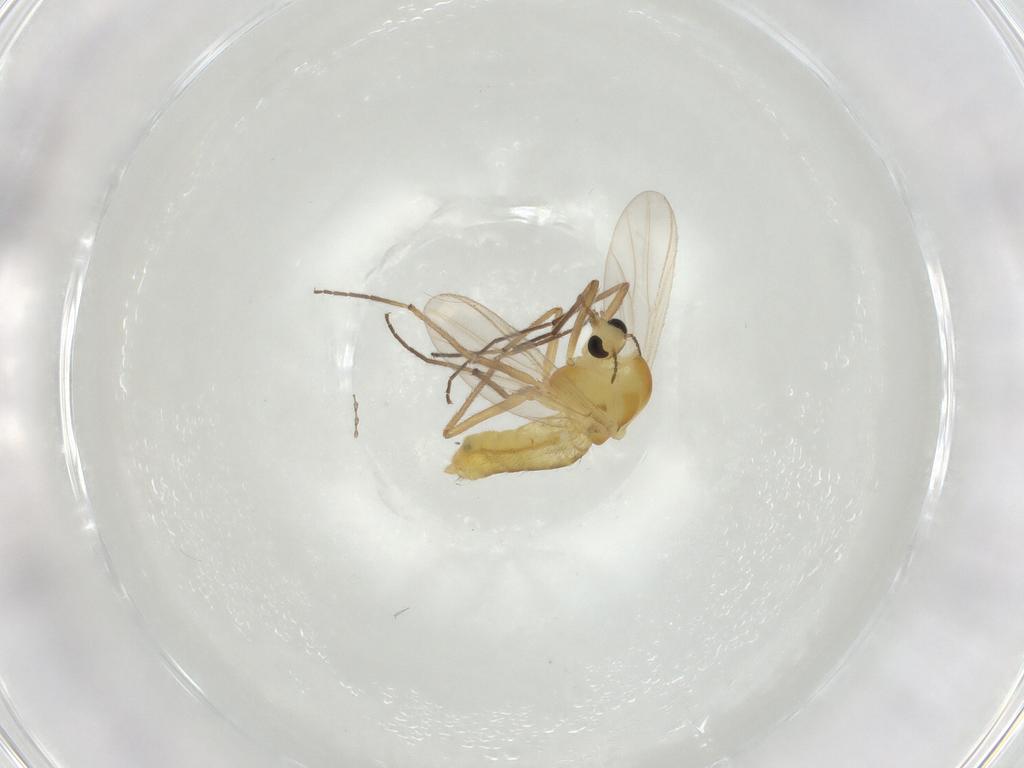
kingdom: Animalia
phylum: Arthropoda
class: Insecta
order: Diptera
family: Chironomidae
